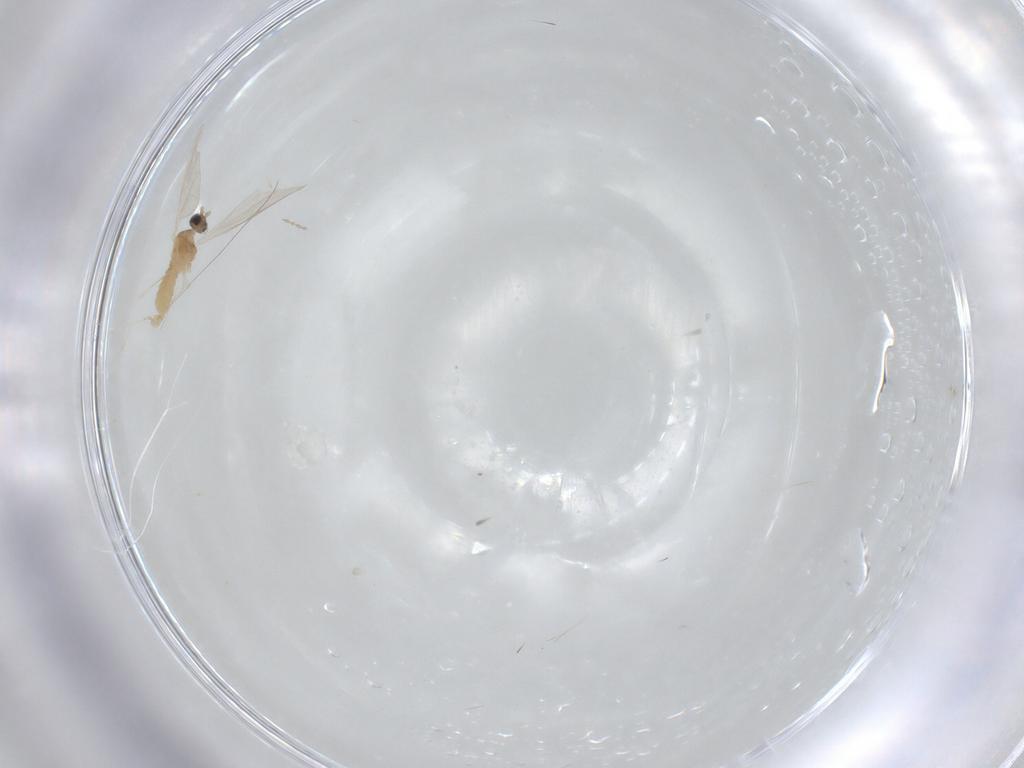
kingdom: Animalia
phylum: Arthropoda
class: Insecta
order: Diptera
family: Cecidomyiidae
